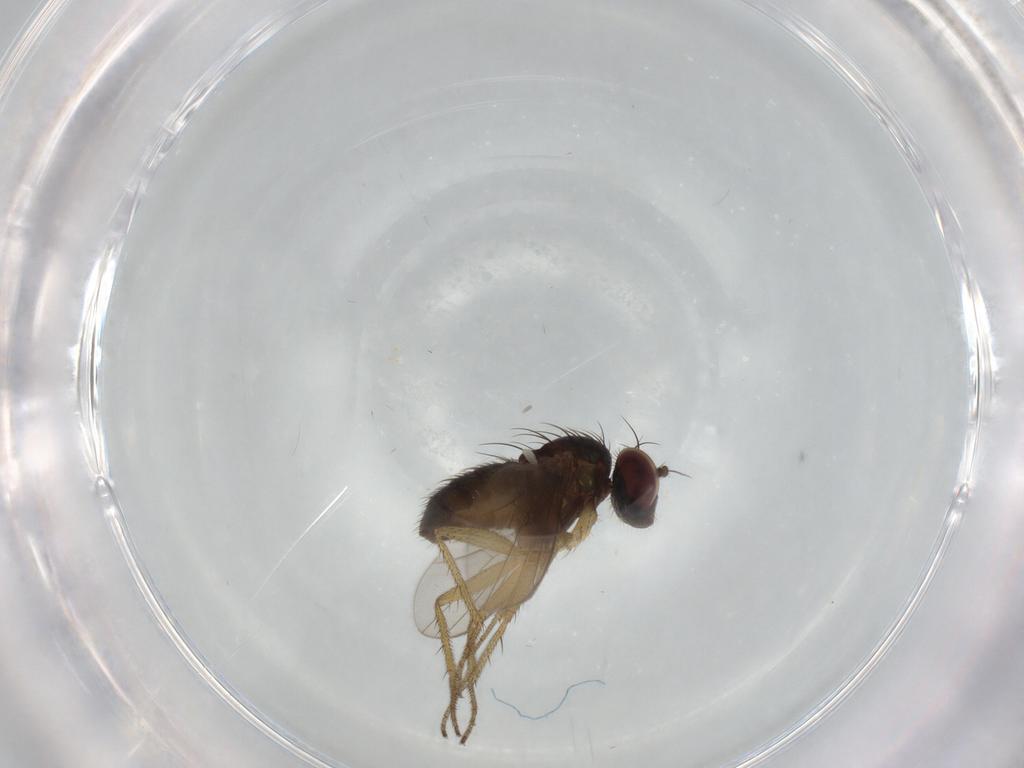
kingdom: Animalia
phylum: Arthropoda
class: Insecta
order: Diptera
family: Dolichopodidae
